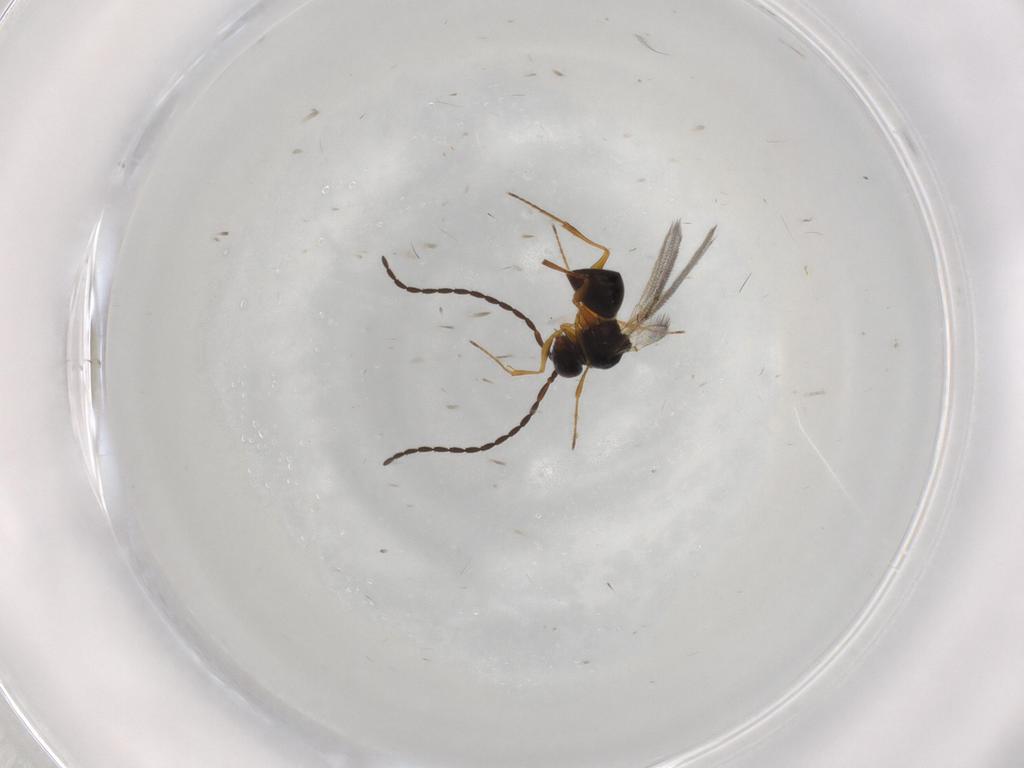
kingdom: Animalia
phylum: Arthropoda
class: Insecta
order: Hymenoptera
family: Figitidae
